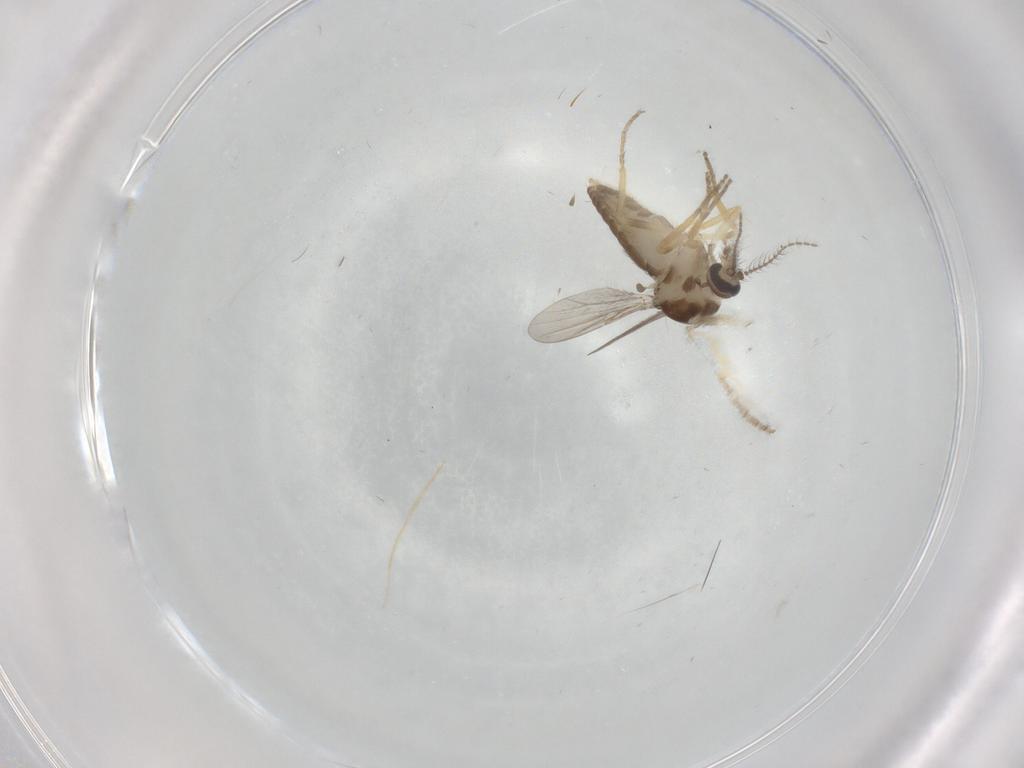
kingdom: Animalia
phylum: Arthropoda
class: Insecta
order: Diptera
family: Ceratopogonidae
